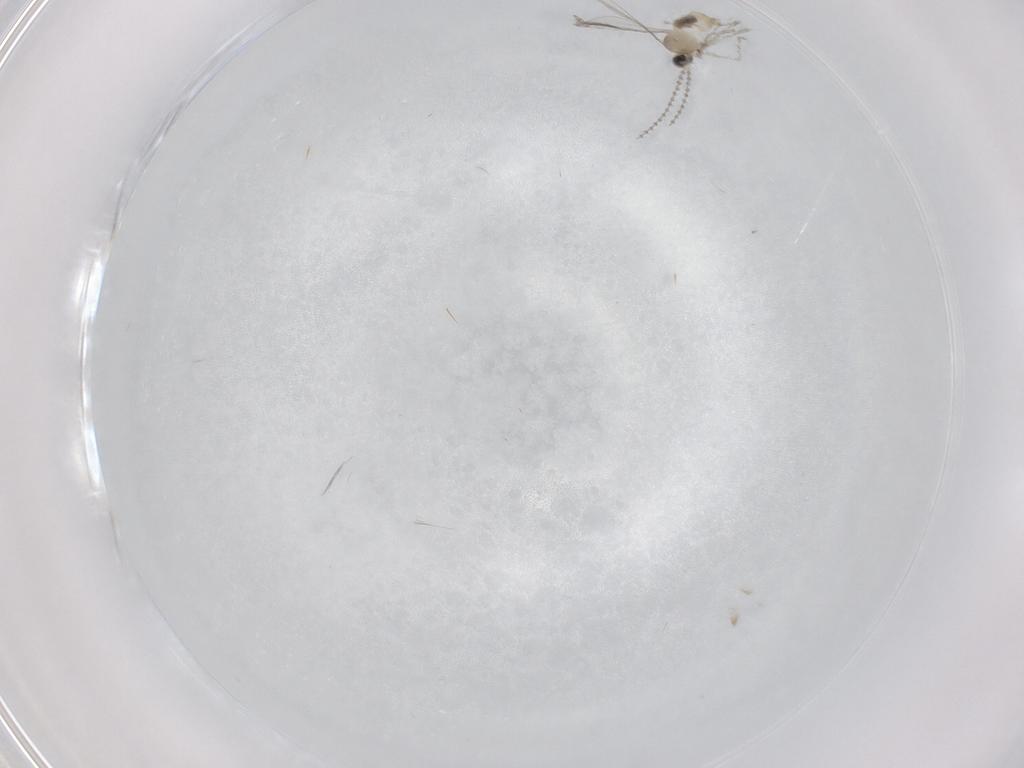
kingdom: Animalia
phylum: Arthropoda
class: Insecta
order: Diptera
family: Cecidomyiidae
